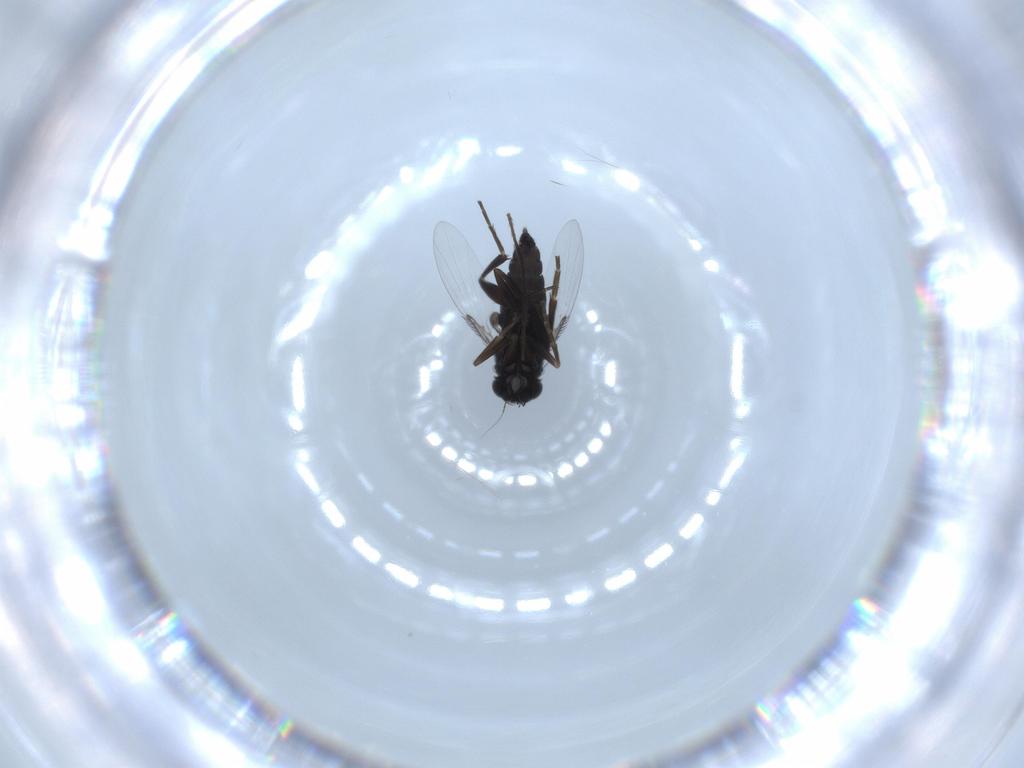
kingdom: Animalia
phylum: Arthropoda
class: Insecta
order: Diptera
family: Phoridae
